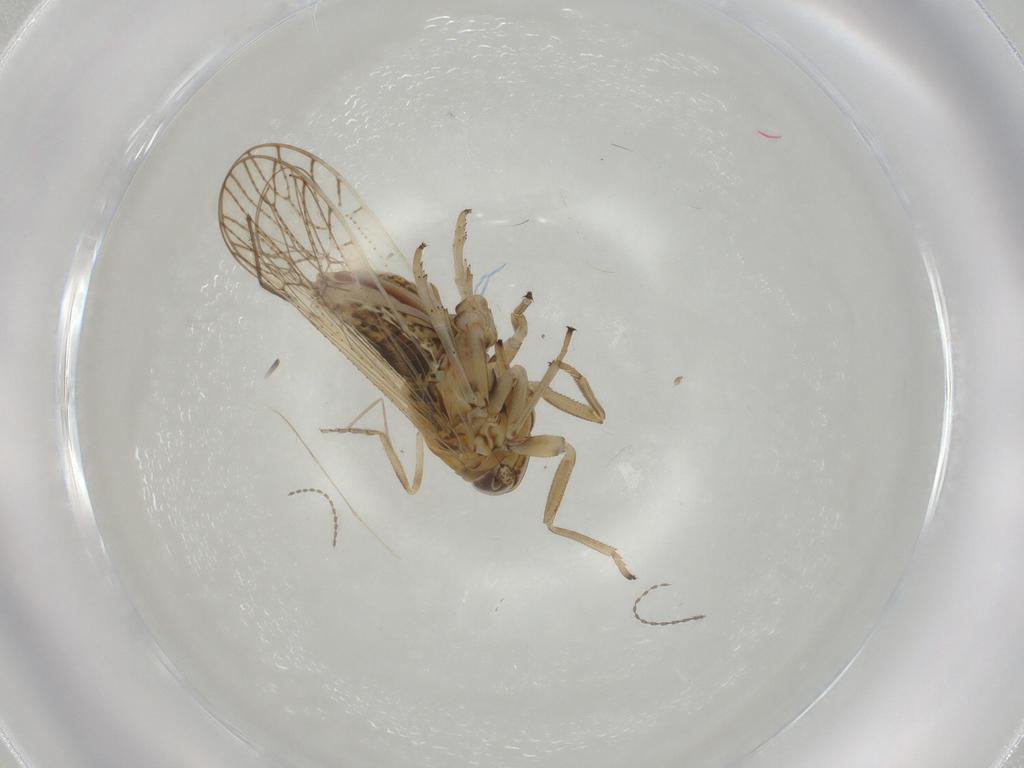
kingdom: Animalia
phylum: Arthropoda
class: Insecta
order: Hemiptera
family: Delphacidae
